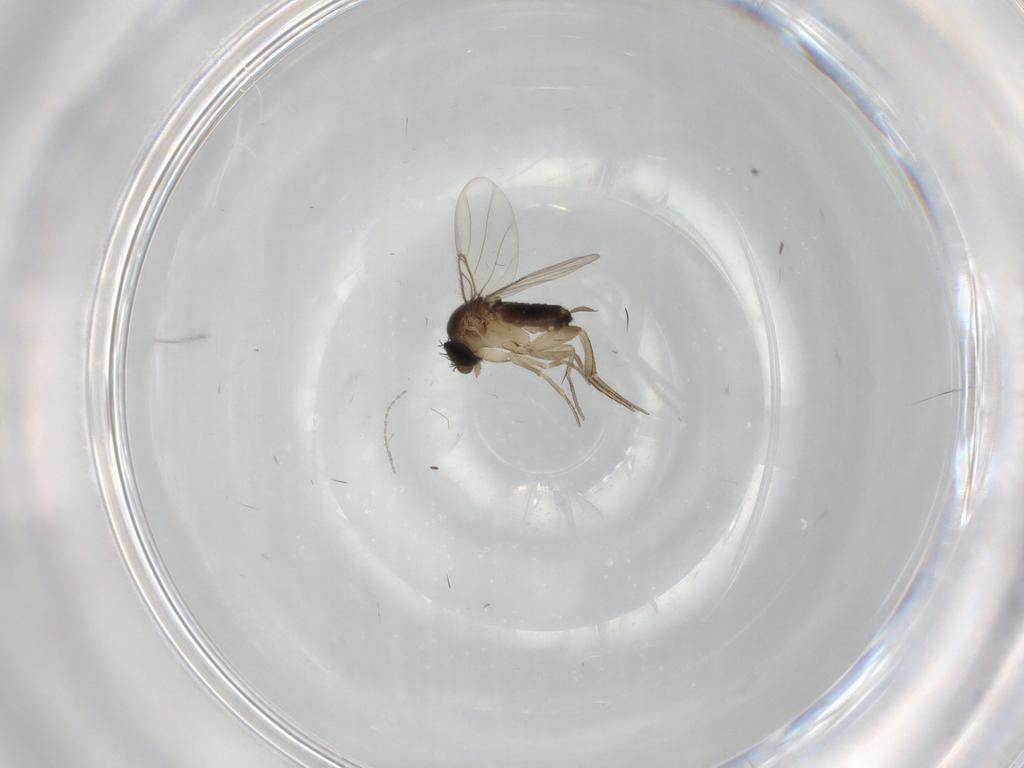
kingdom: Animalia
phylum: Arthropoda
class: Insecta
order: Diptera
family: Cecidomyiidae
